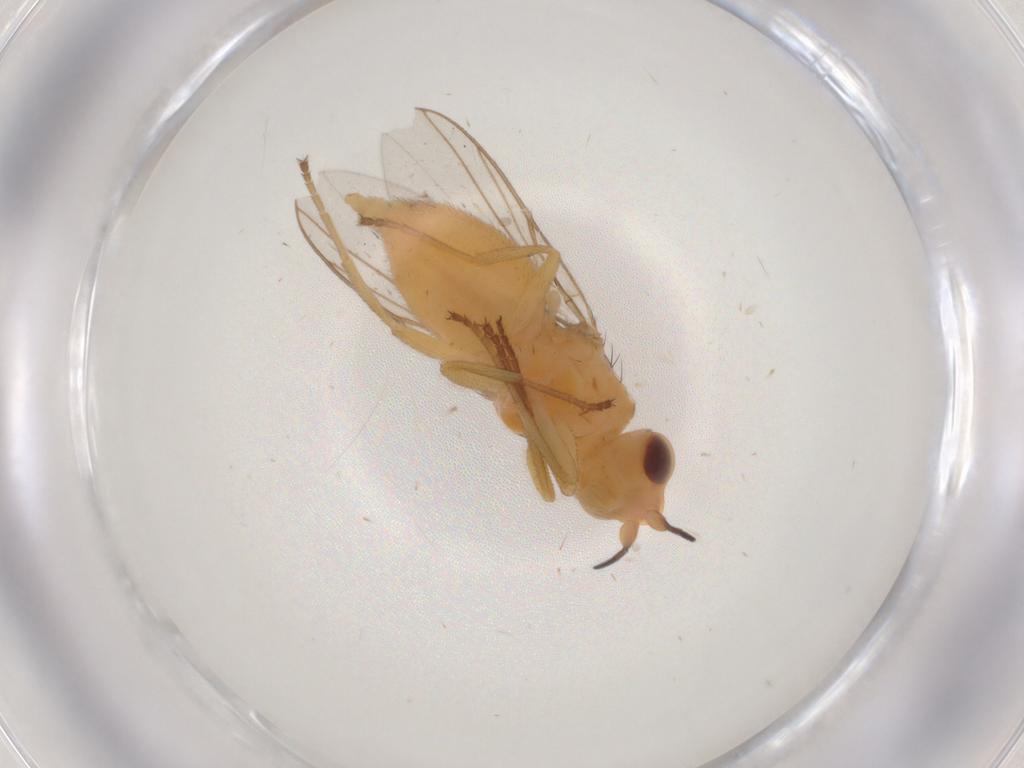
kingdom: Animalia
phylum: Arthropoda
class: Insecta
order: Diptera
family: Chloropidae
